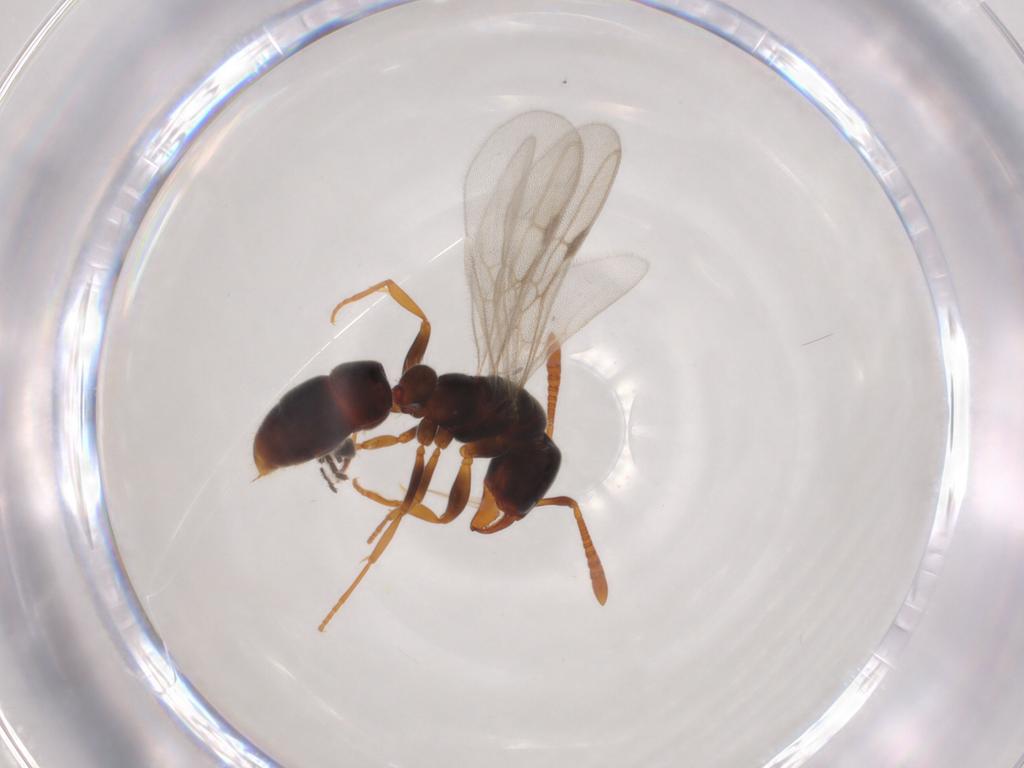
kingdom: Animalia
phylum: Arthropoda
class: Insecta
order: Hymenoptera
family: Formicidae
